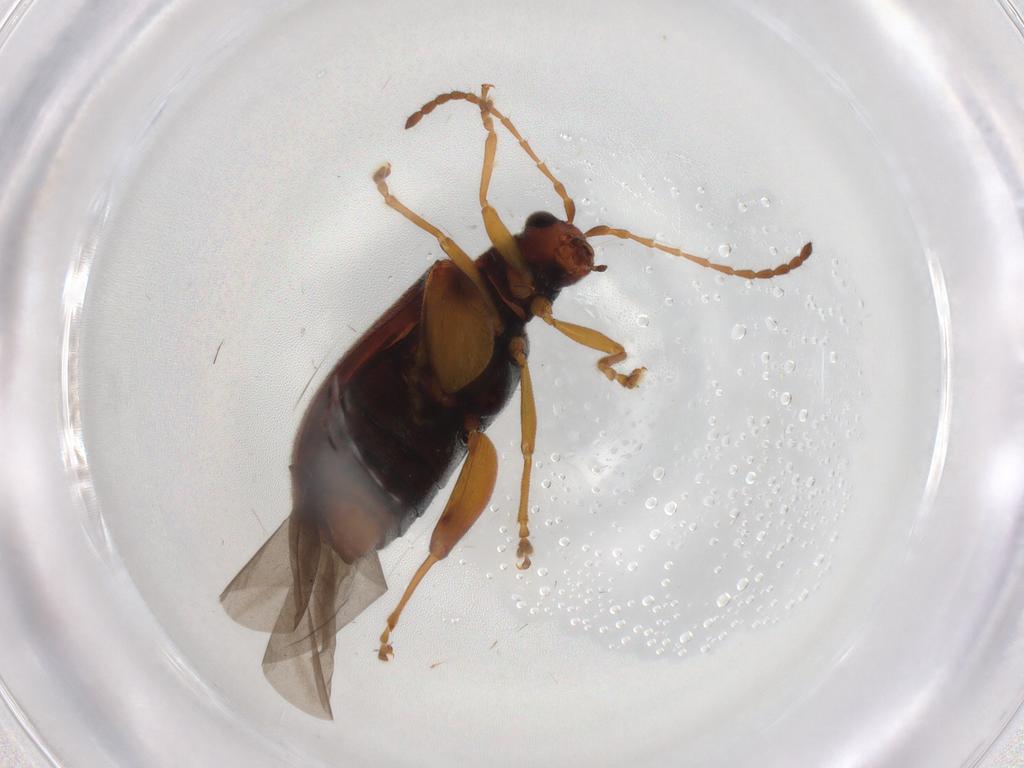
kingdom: Animalia
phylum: Arthropoda
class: Insecta
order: Coleoptera
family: Chrysomelidae
